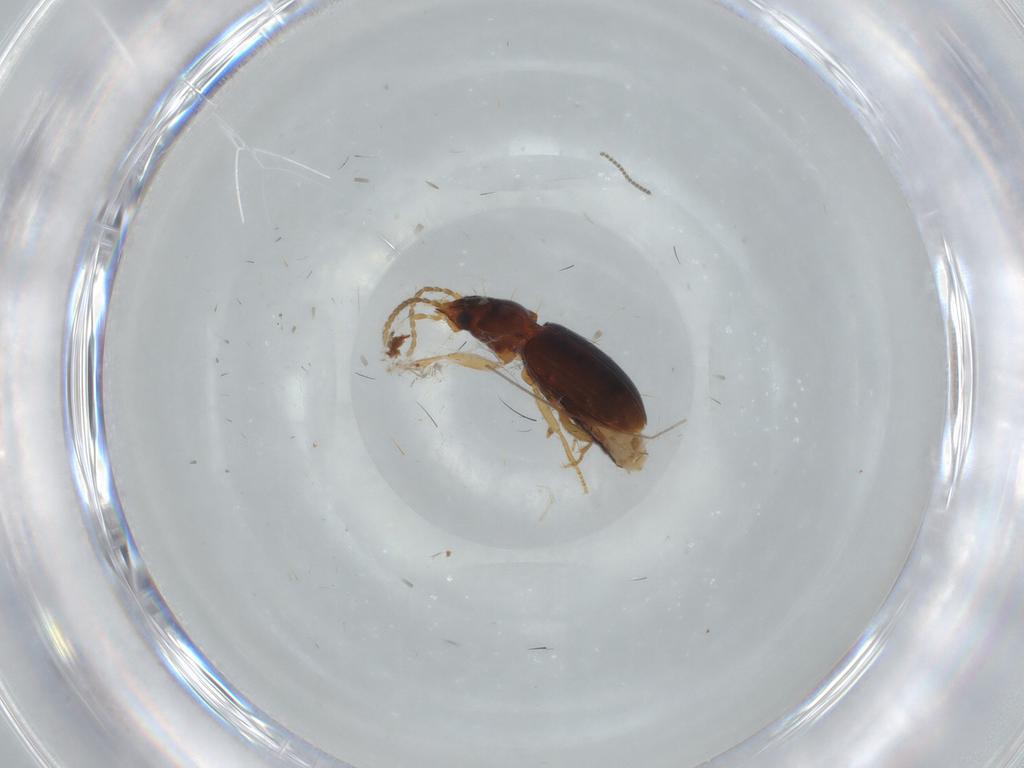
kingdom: Animalia
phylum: Arthropoda
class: Insecta
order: Coleoptera
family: Carabidae
